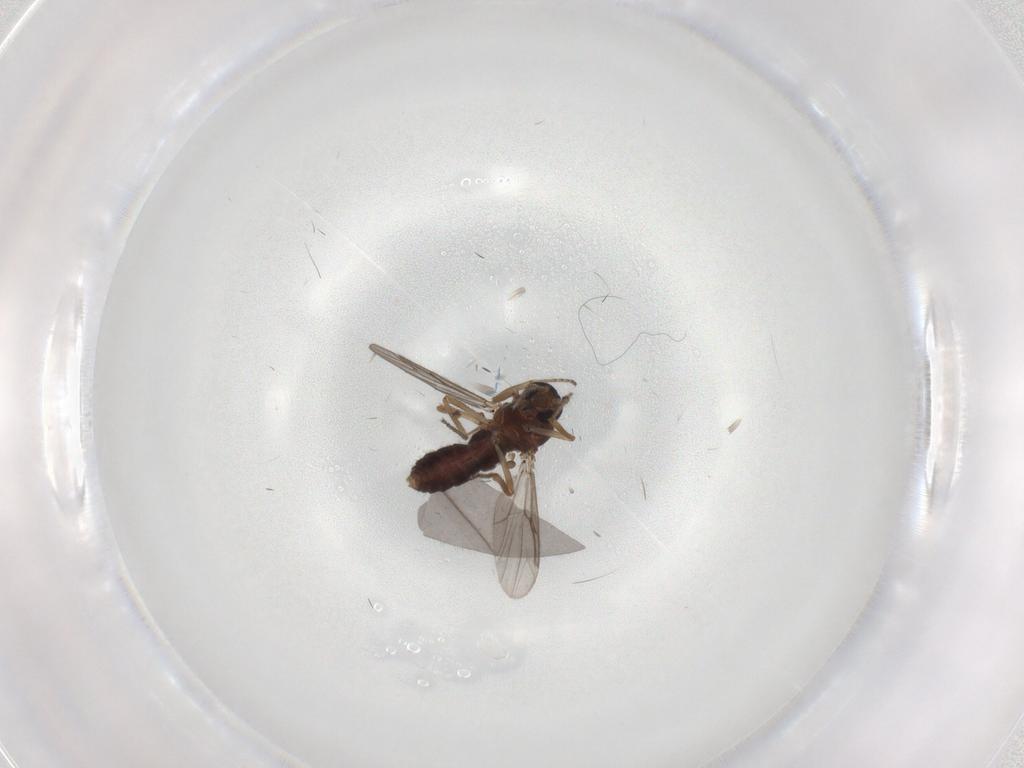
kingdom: Animalia
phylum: Arthropoda
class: Insecta
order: Diptera
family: Ceratopogonidae
